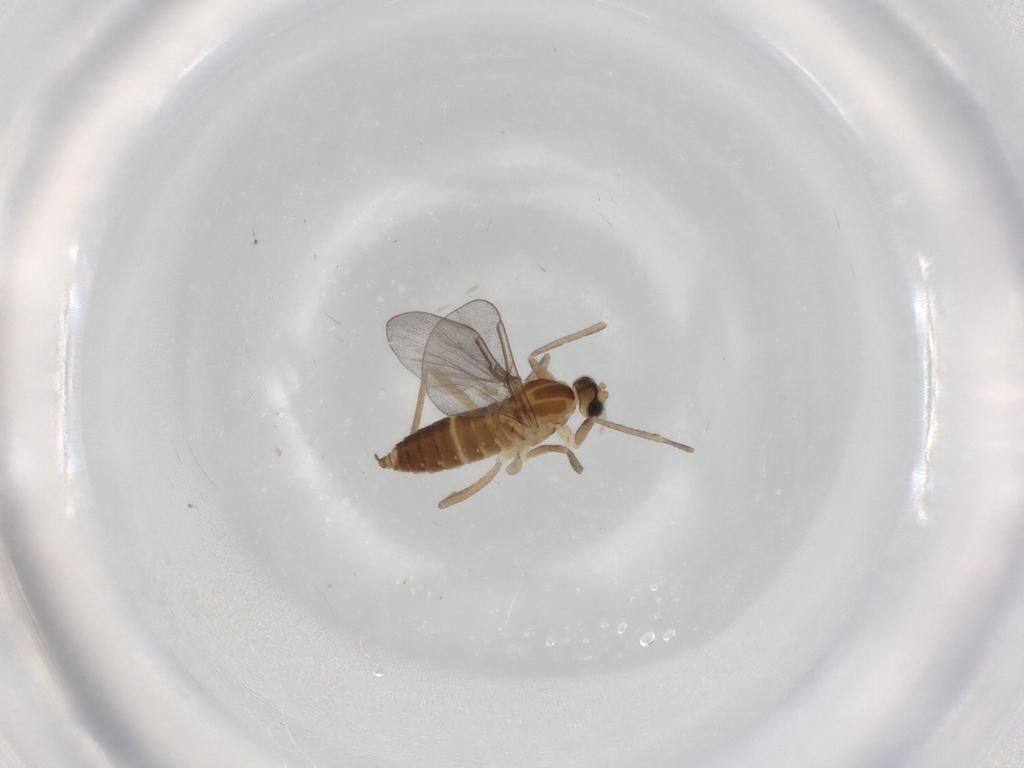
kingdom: Animalia
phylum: Arthropoda
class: Insecta
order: Diptera
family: Cecidomyiidae
